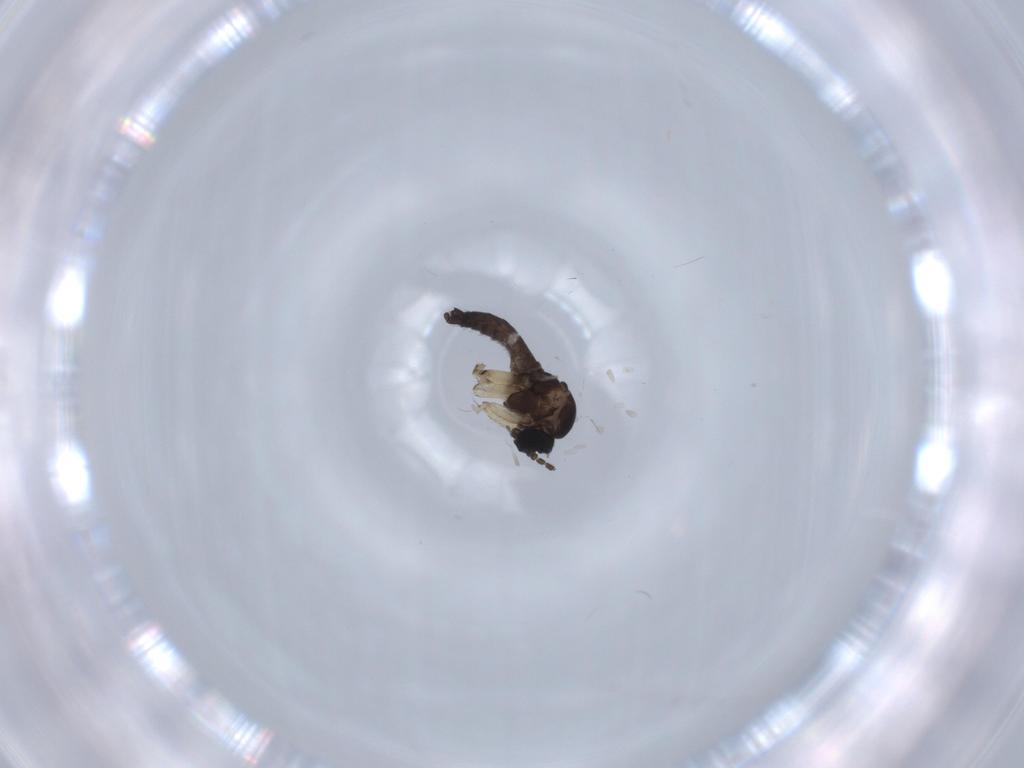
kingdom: Animalia
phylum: Arthropoda
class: Insecta
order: Diptera
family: Sciaridae
